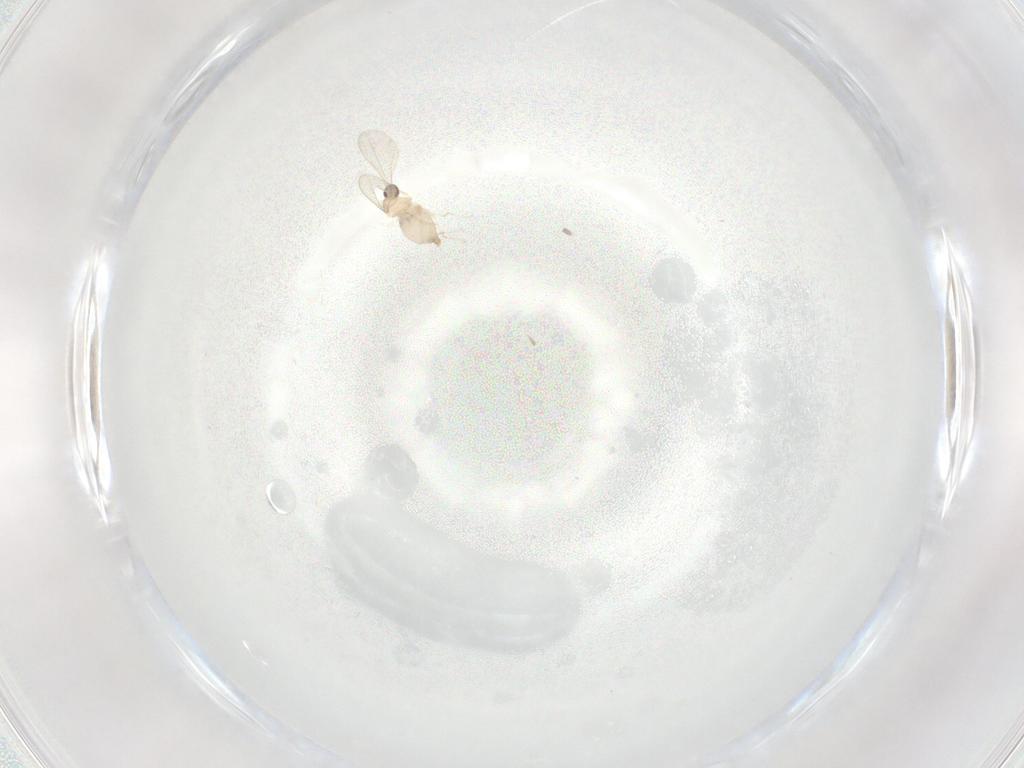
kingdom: Animalia
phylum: Arthropoda
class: Insecta
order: Diptera
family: Cecidomyiidae
